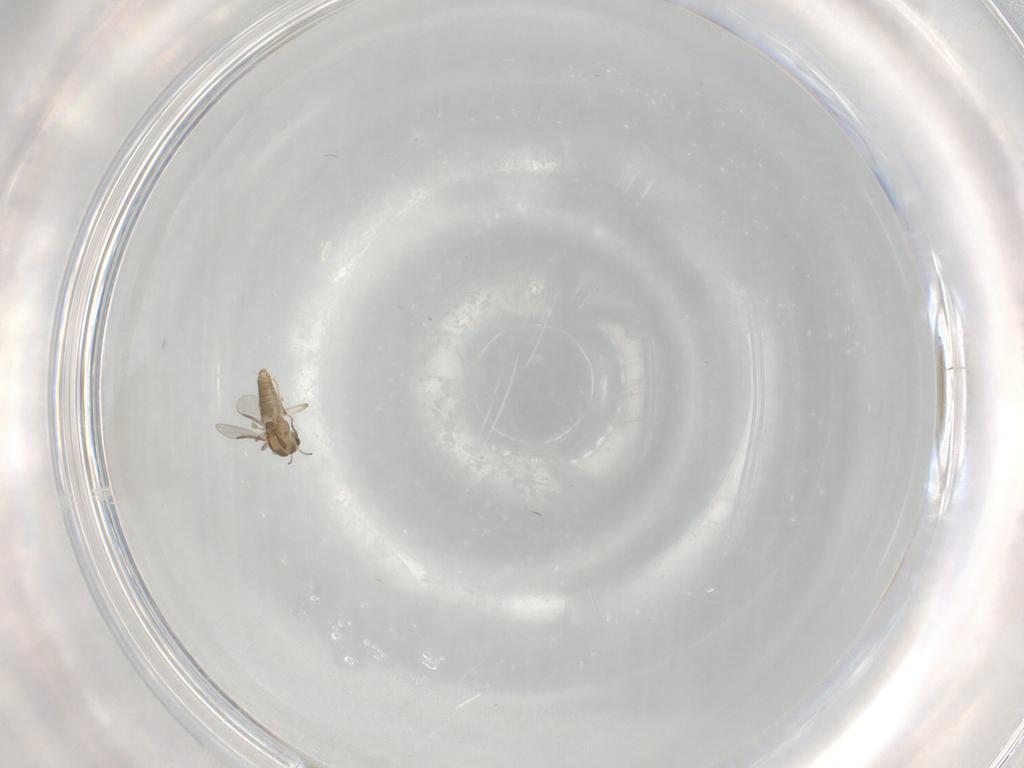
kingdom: Animalia
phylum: Arthropoda
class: Insecta
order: Diptera
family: Chironomidae
